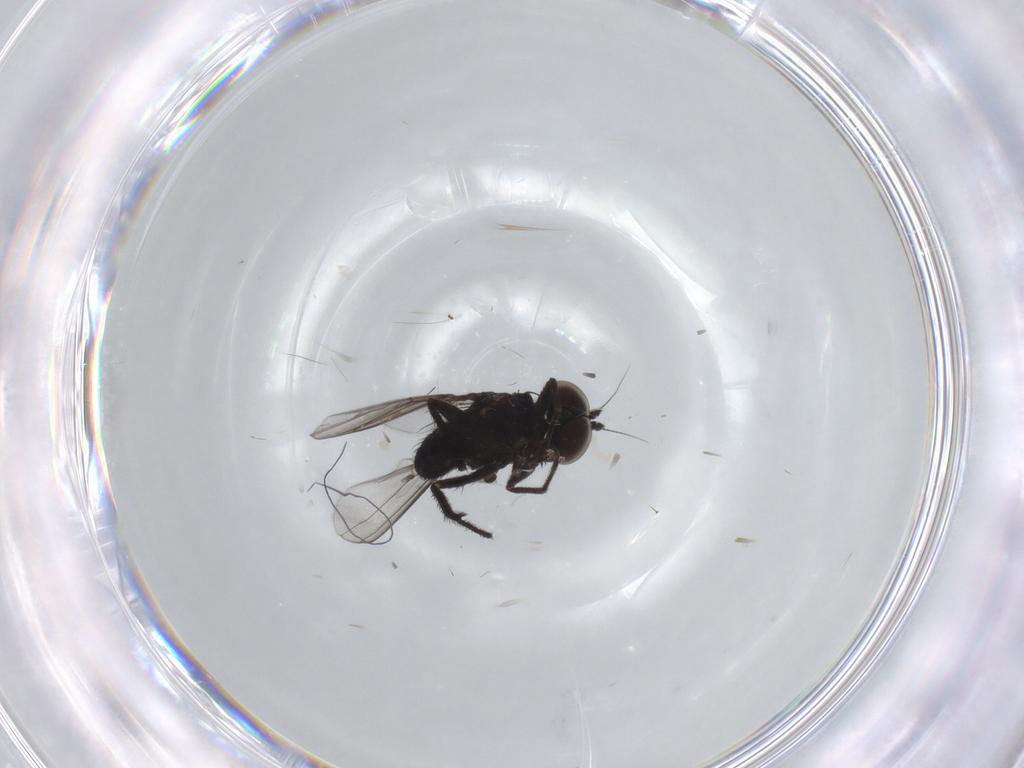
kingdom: Animalia
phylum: Arthropoda
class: Insecta
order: Diptera
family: Dolichopodidae
